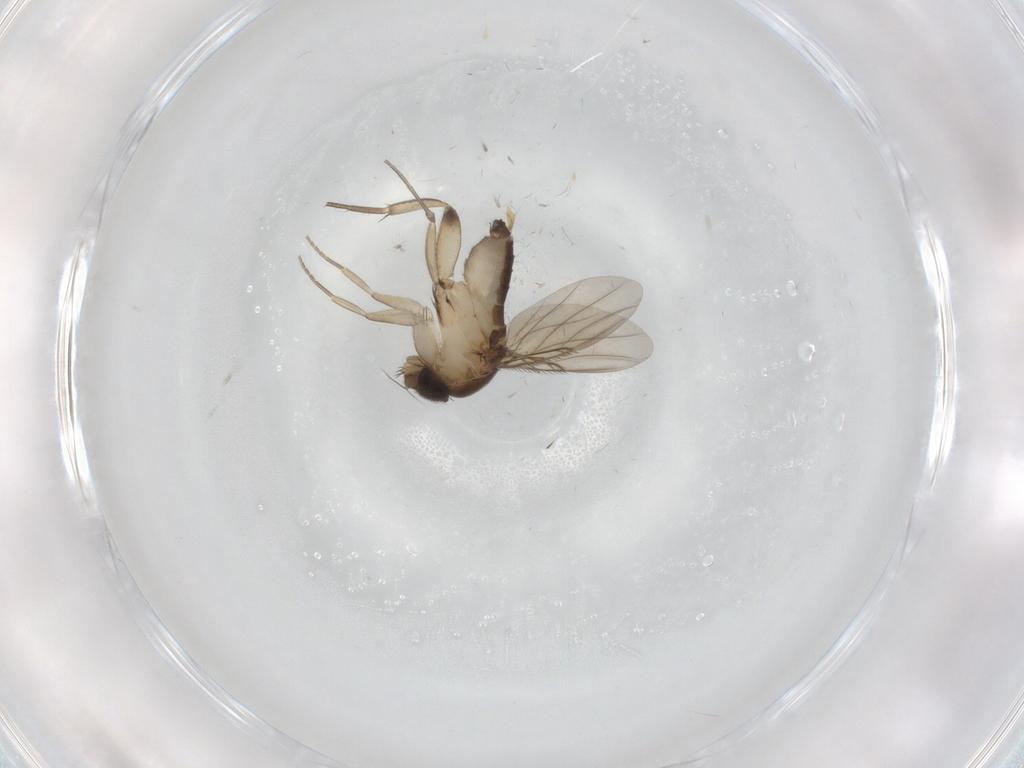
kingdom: Animalia
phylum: Arthropoda
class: Insecta
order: Diptera
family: Phoridae
